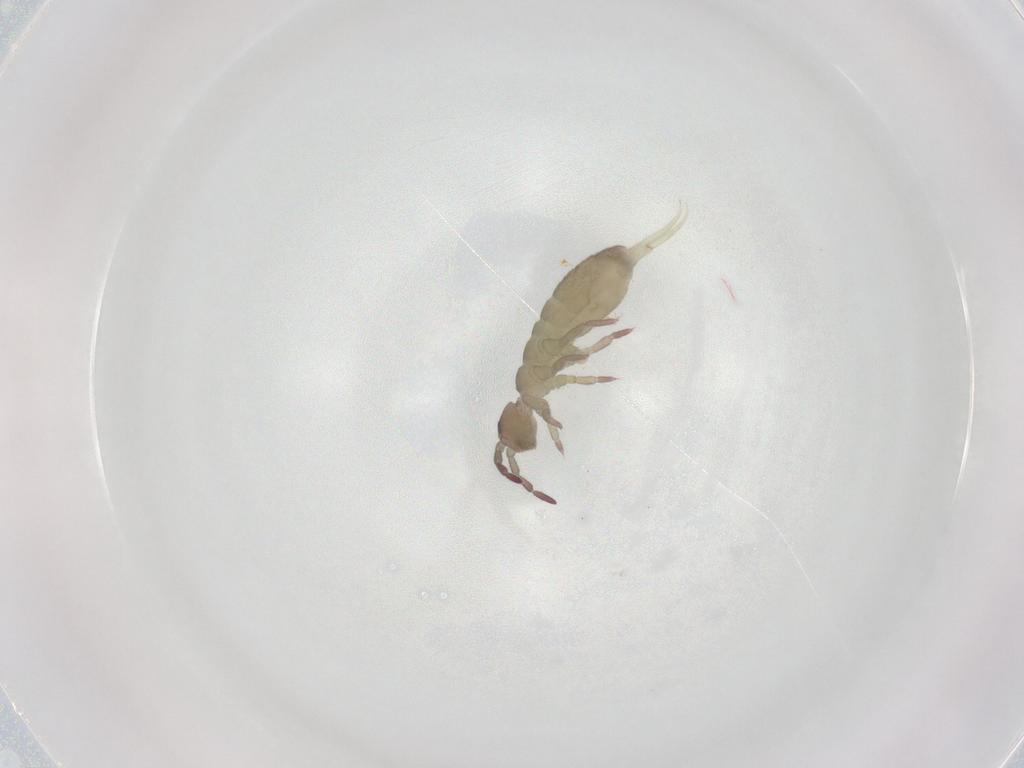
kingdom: Animalia
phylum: Arthropoda
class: Collembola
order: Entomobryomorpha
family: Isotomidae
